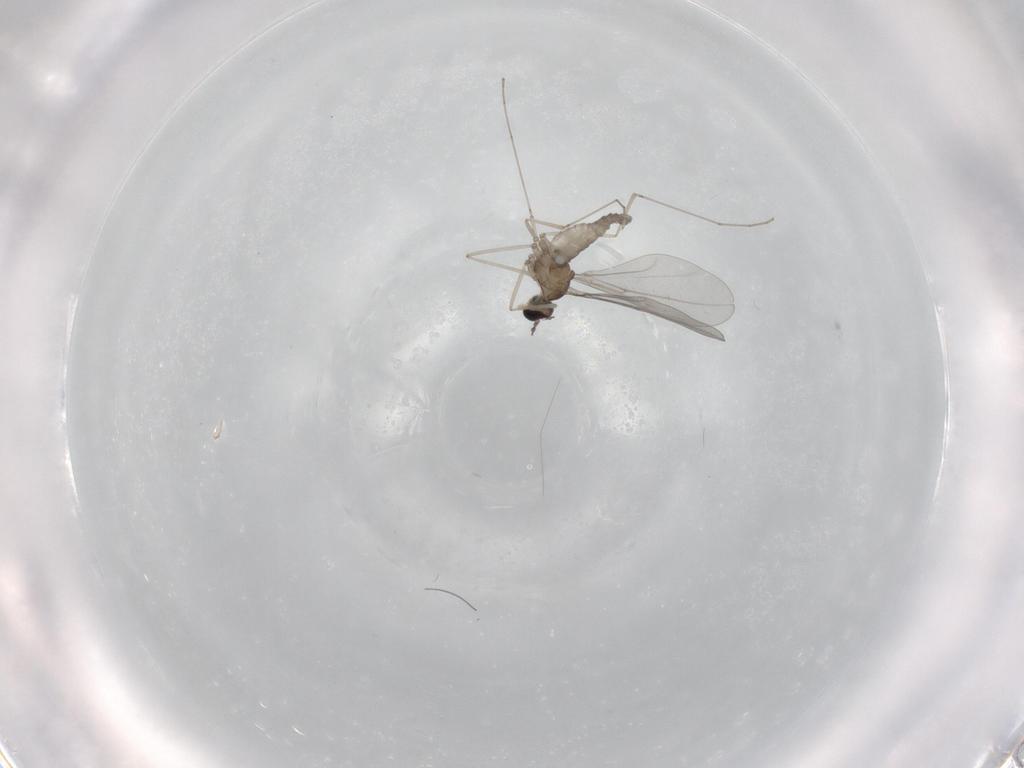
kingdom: Animalia
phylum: Arthropoda
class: Insecta
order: Diptera
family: Cecidomyiidae
